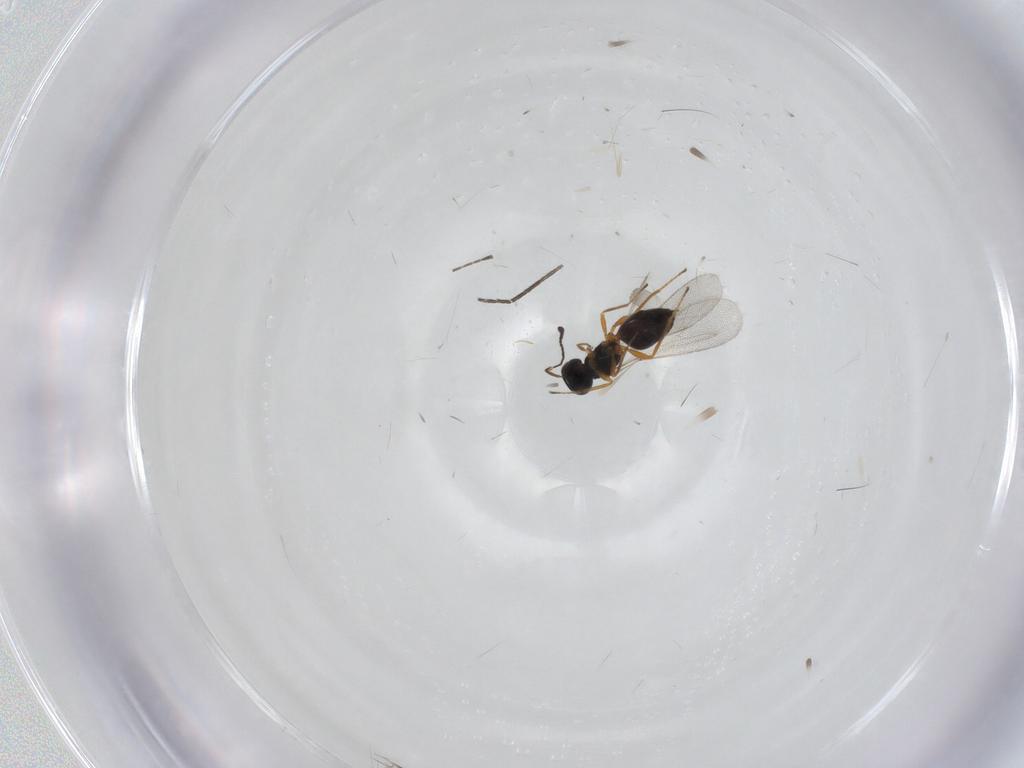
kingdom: Animalia
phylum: Arthropoda
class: Insecta
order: Hymenoptera
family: Mymaridae
